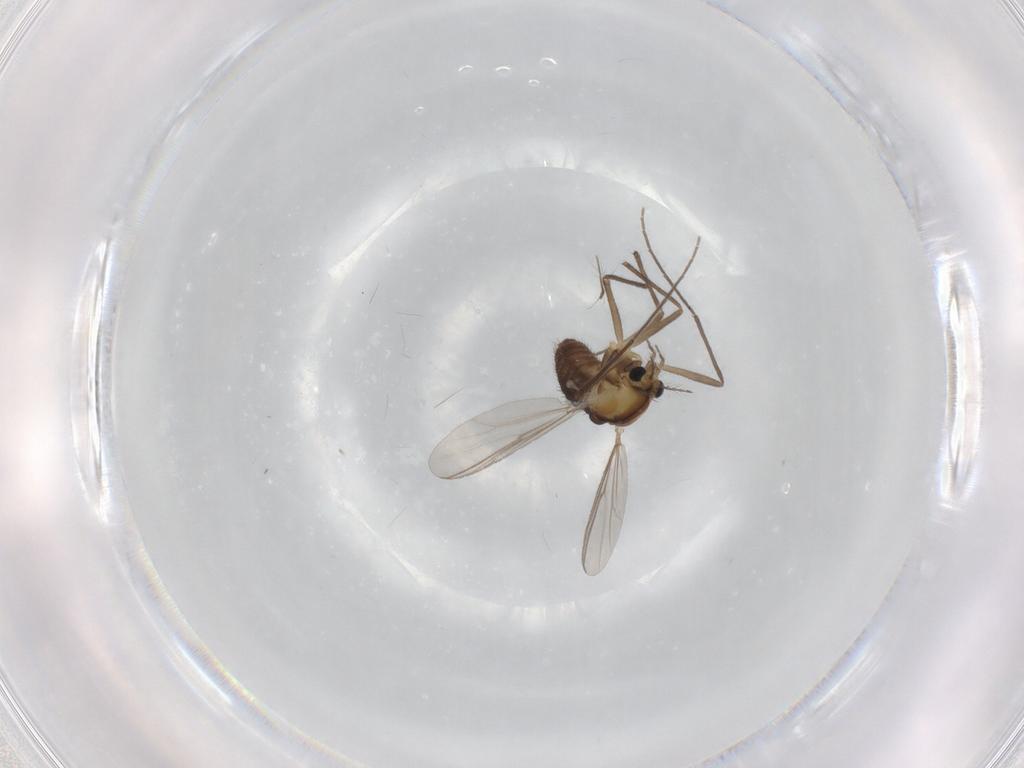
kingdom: Animalia
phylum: Arthropoda
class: Insecta
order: Diptera
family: Chironomidae
